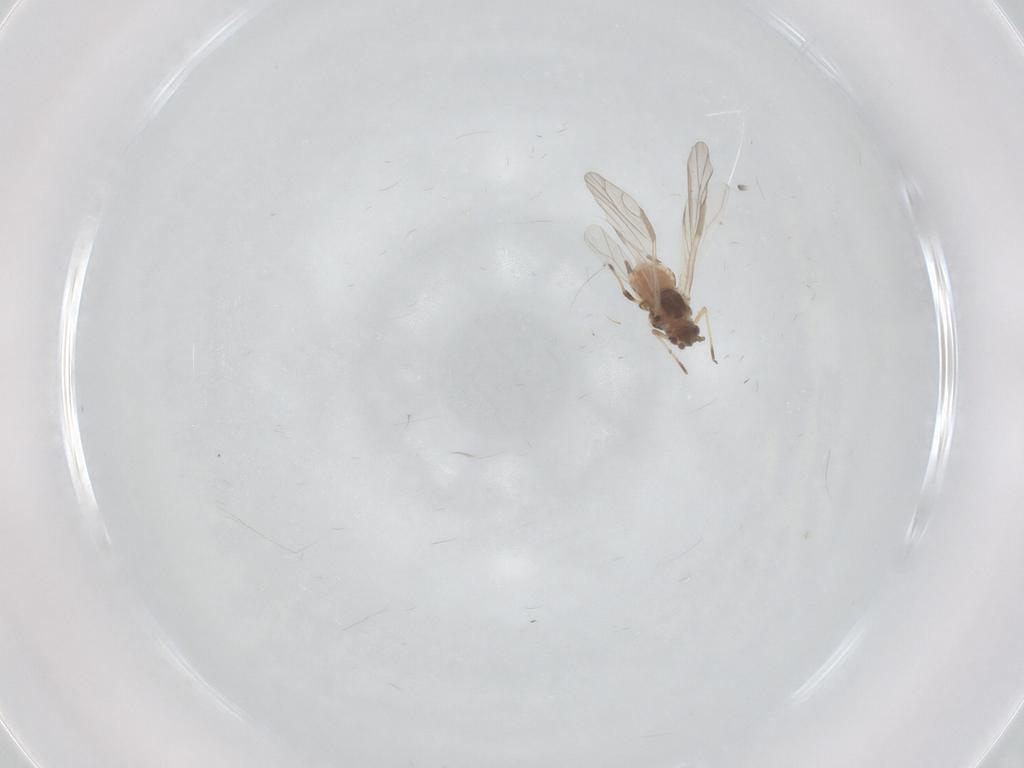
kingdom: Animalia
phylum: Arthropoda
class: Insecta
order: Hemiptera
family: Aphididae
